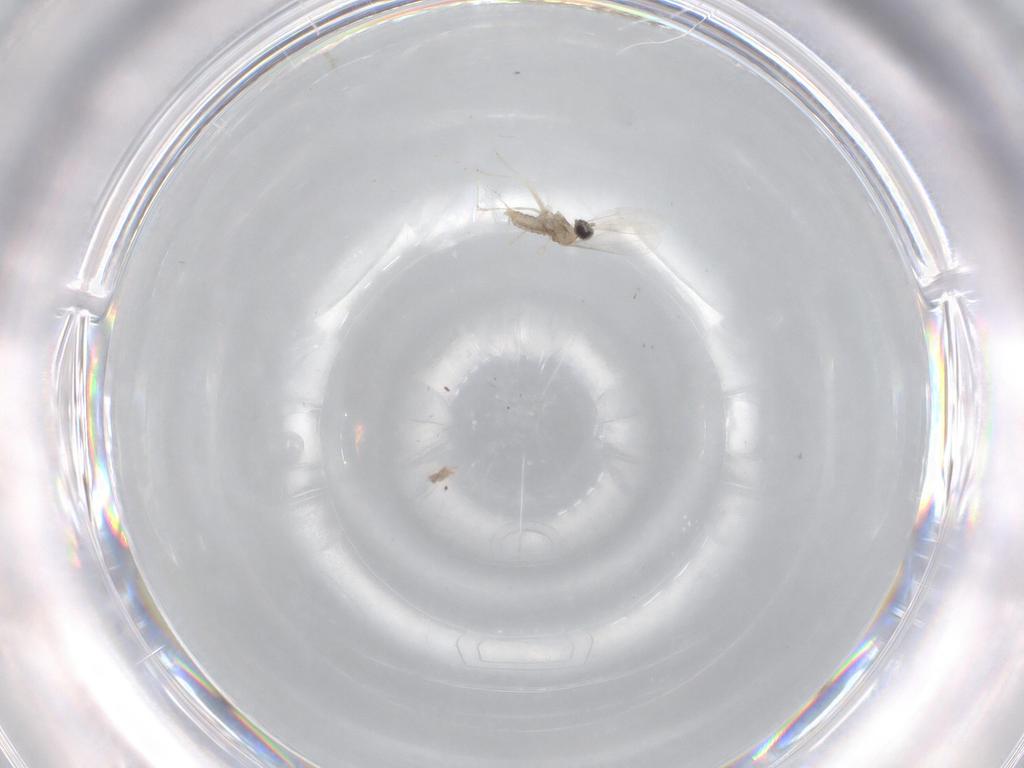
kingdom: Animalia
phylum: Arthropoda
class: Insecta
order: Diptera
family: Cecidomyiidae
